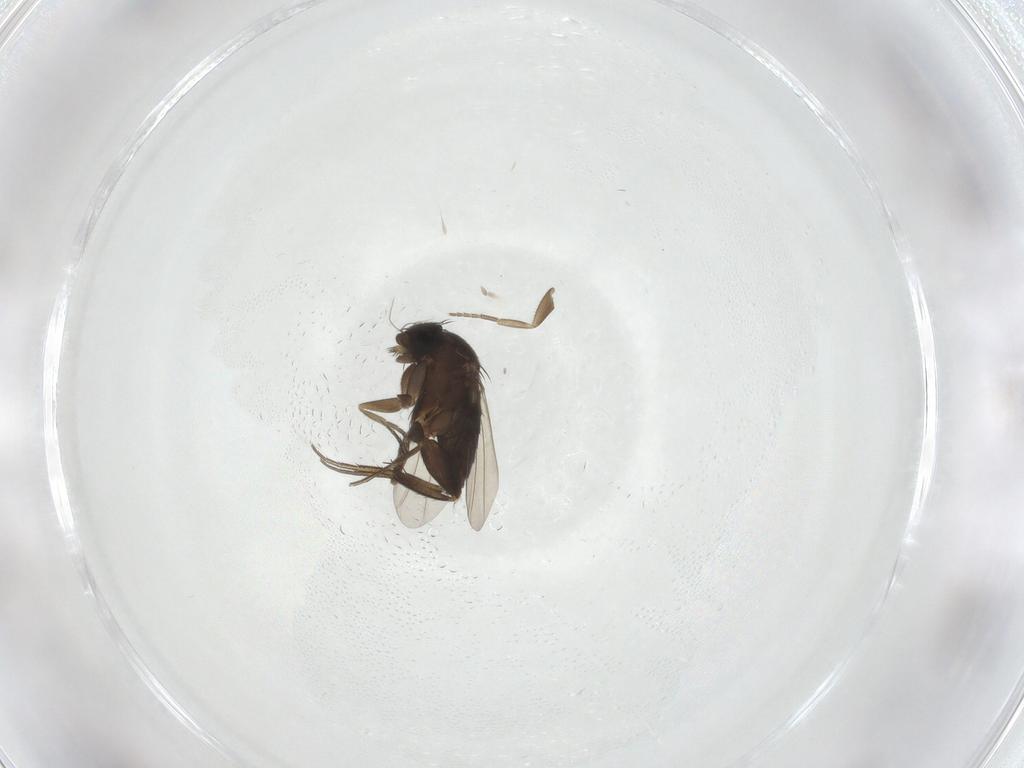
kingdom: Animalia
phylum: Arthropoda
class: Insecta
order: Diptera
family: Phoridae
